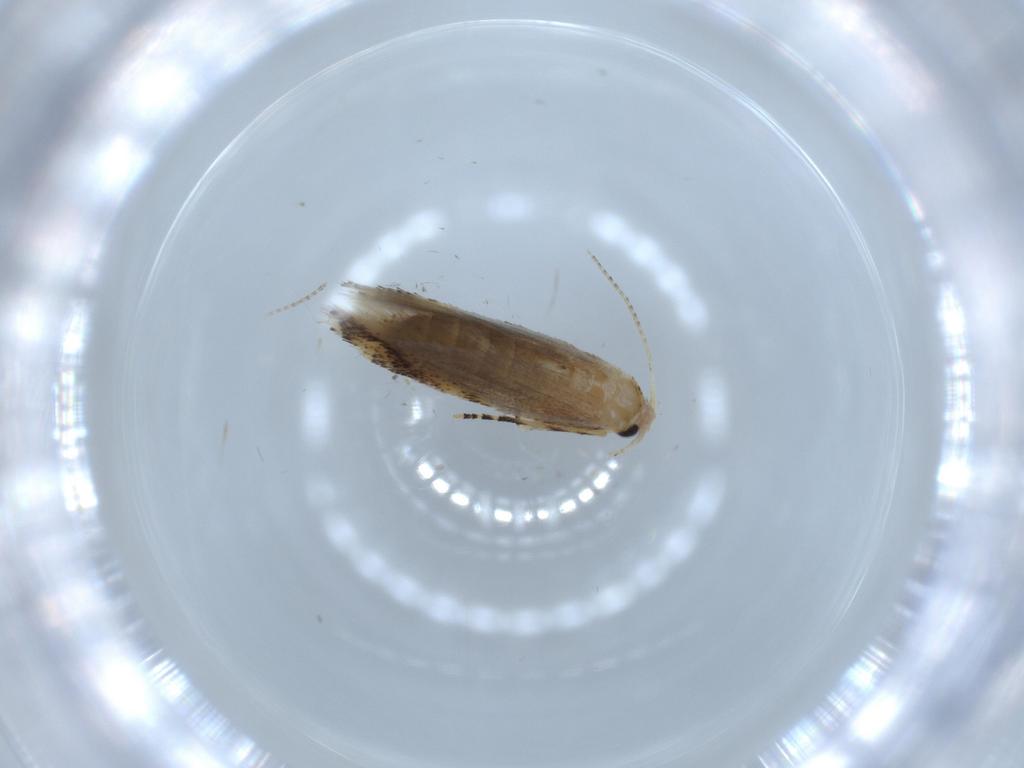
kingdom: Animalia
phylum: Arthropoda
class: Insecta
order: Lepidoptera
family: Bucculatricidae
